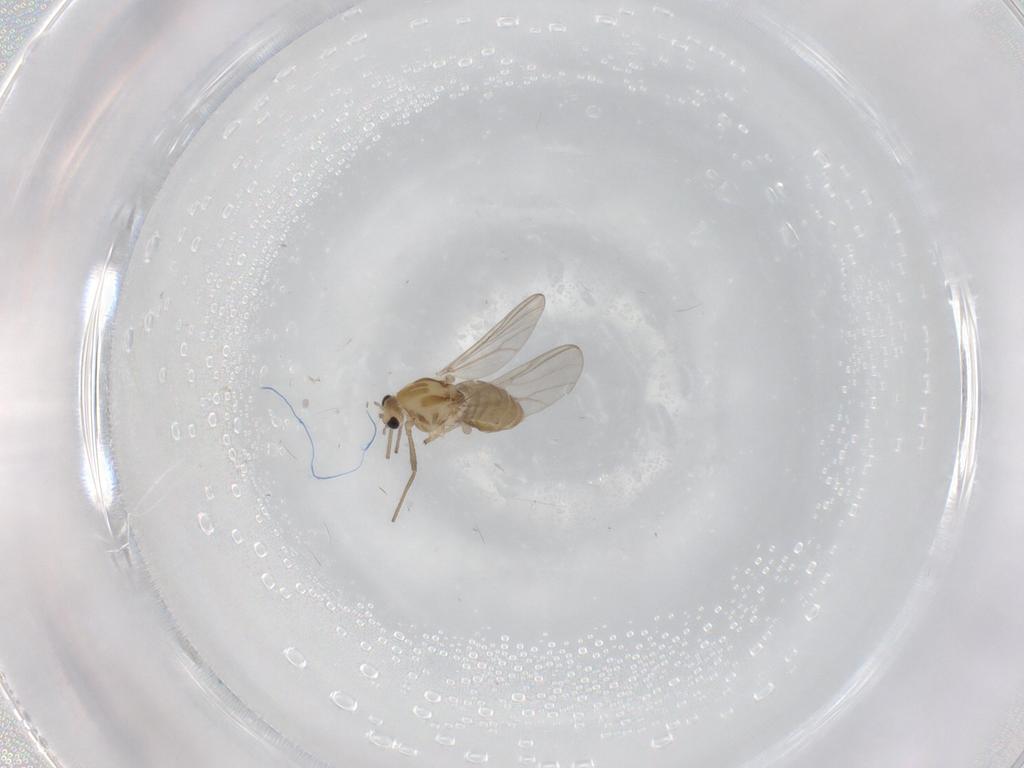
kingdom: Animalia
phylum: Arthropoda
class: Insecta
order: Diptera
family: Chironomidae
